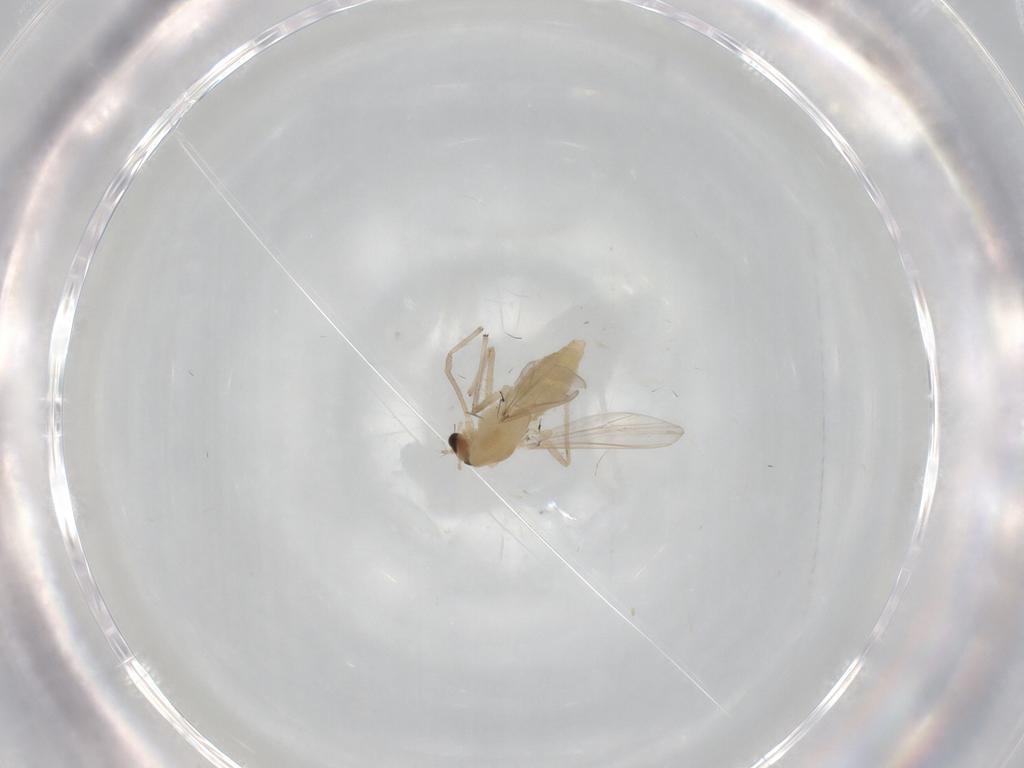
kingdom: Animalia
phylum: Arthropoda
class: Insecta
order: Diptera
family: Chironomidae
